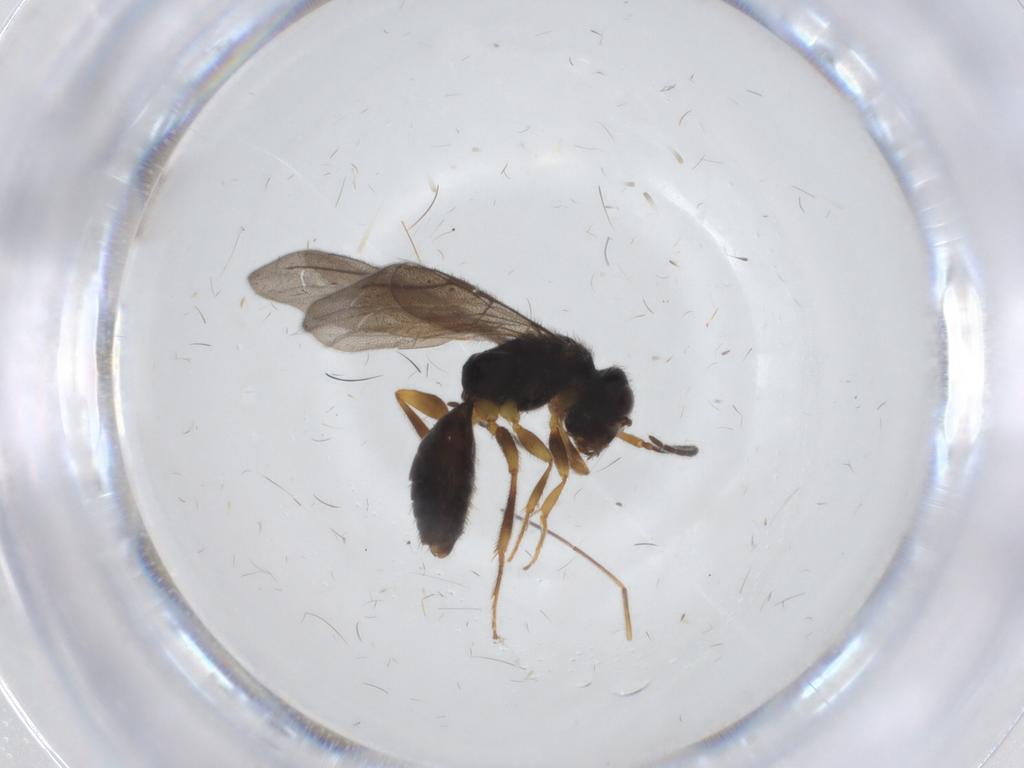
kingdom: Animalia
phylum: Arthropoda
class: Insecta
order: Hymenoptera
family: Bethylidae
